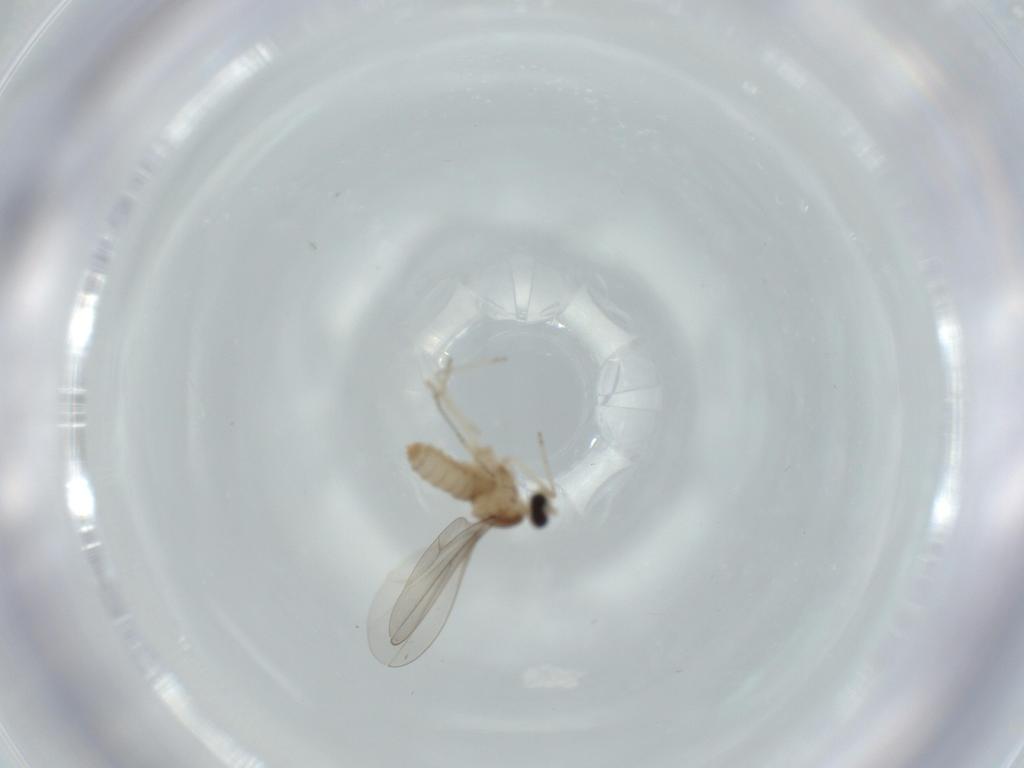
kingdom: Animalia
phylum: Arthropoda
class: Insecta
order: Diptera
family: Cecidomyiidae
